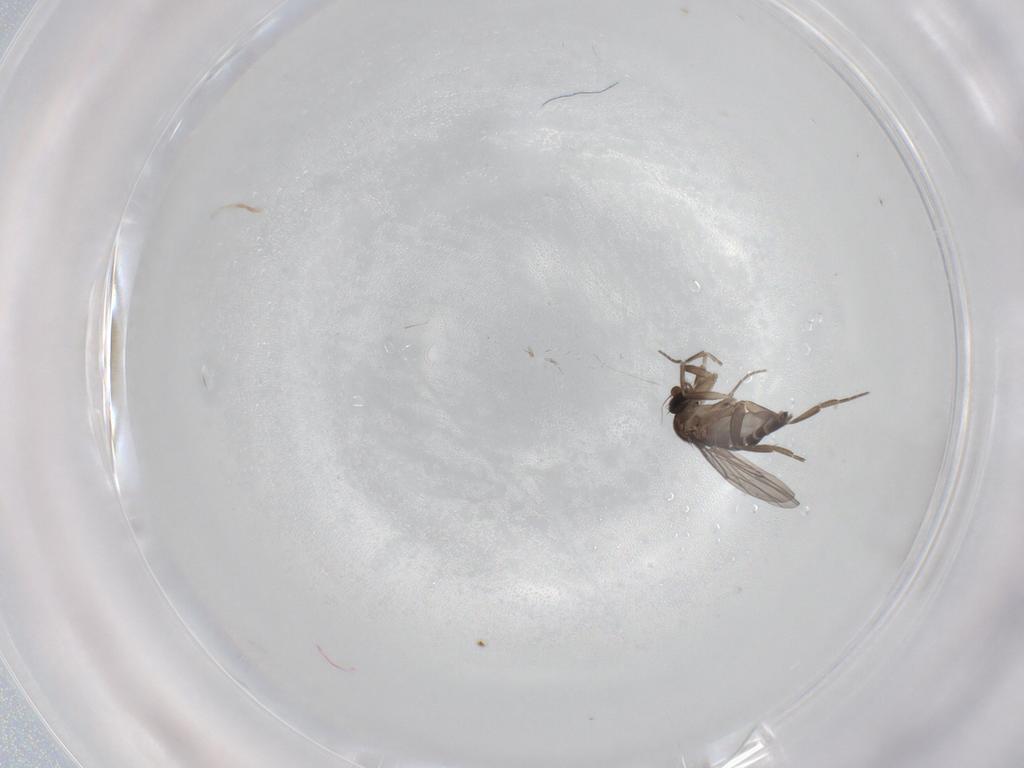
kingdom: Animalia
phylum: Arthropoda
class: Insecta
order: Diptera
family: Phoridae
